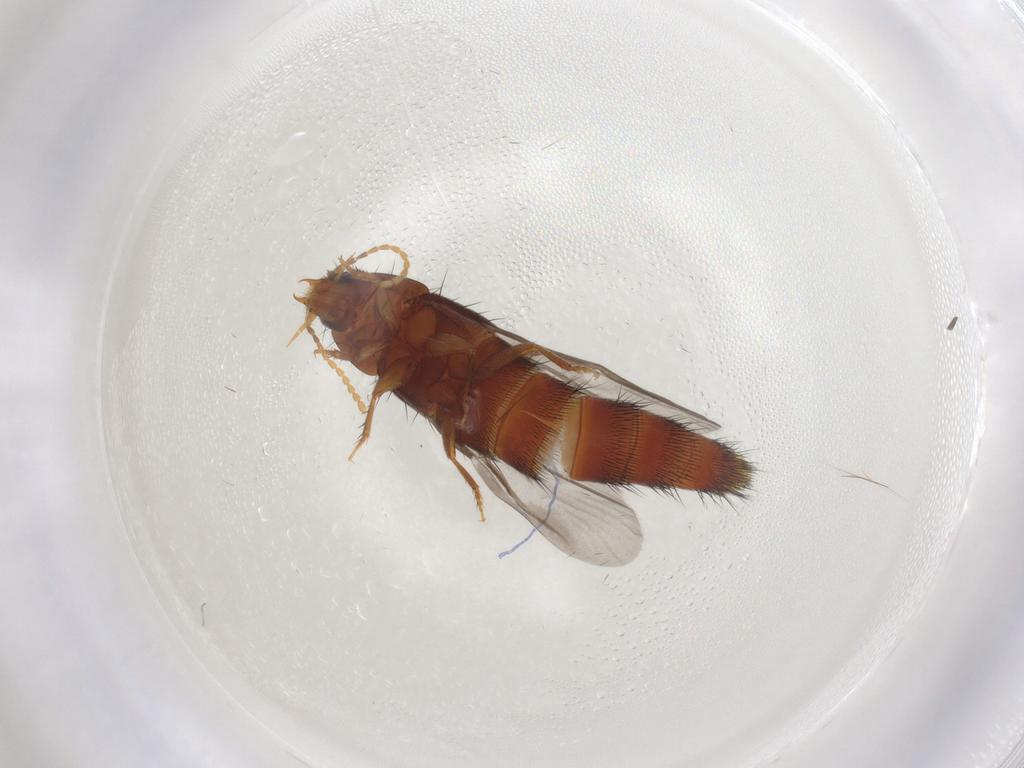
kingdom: Animalia
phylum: Arthropoda
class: Insecta
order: Coleoptera
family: Staphylinidae
